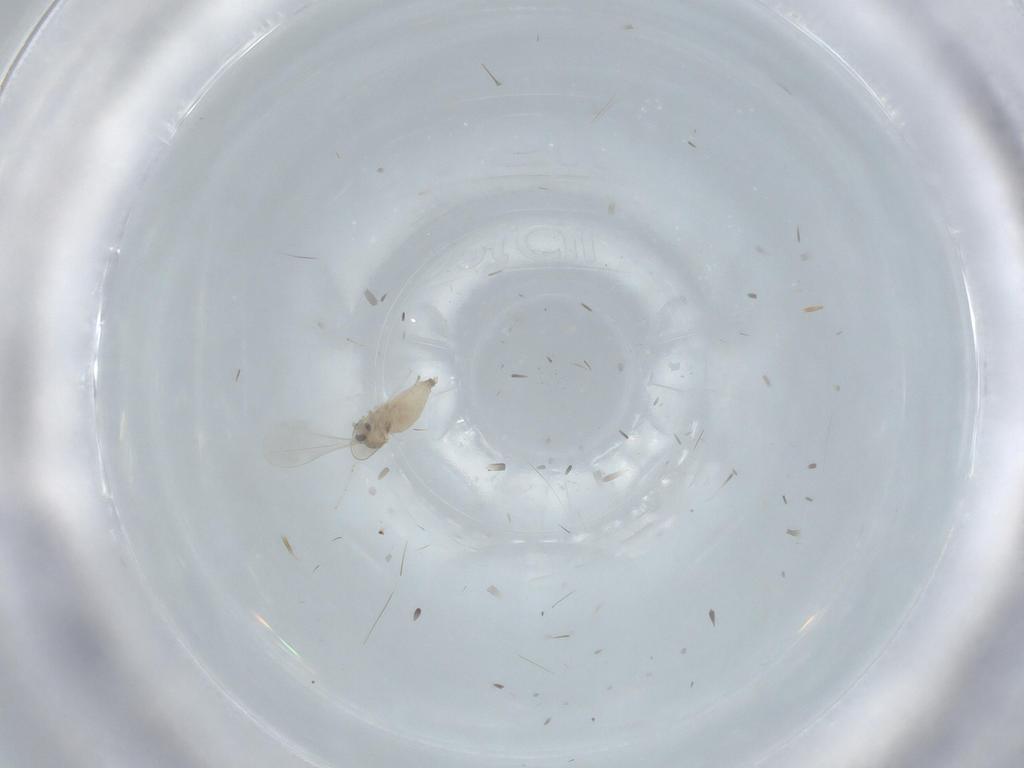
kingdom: Animalia
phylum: Arthropoda
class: Insecta
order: Diptera
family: Cecidomyiidae
